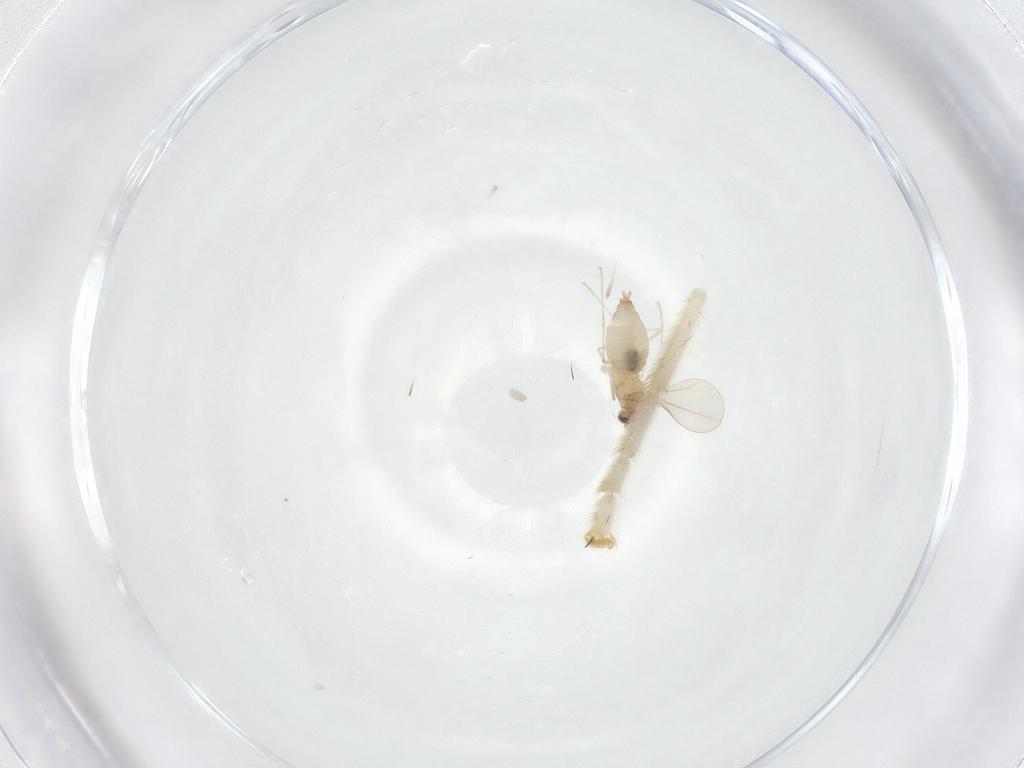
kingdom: Animalia
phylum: Arthropoda
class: Insecta
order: Diptera
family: Cecidomyiidae
